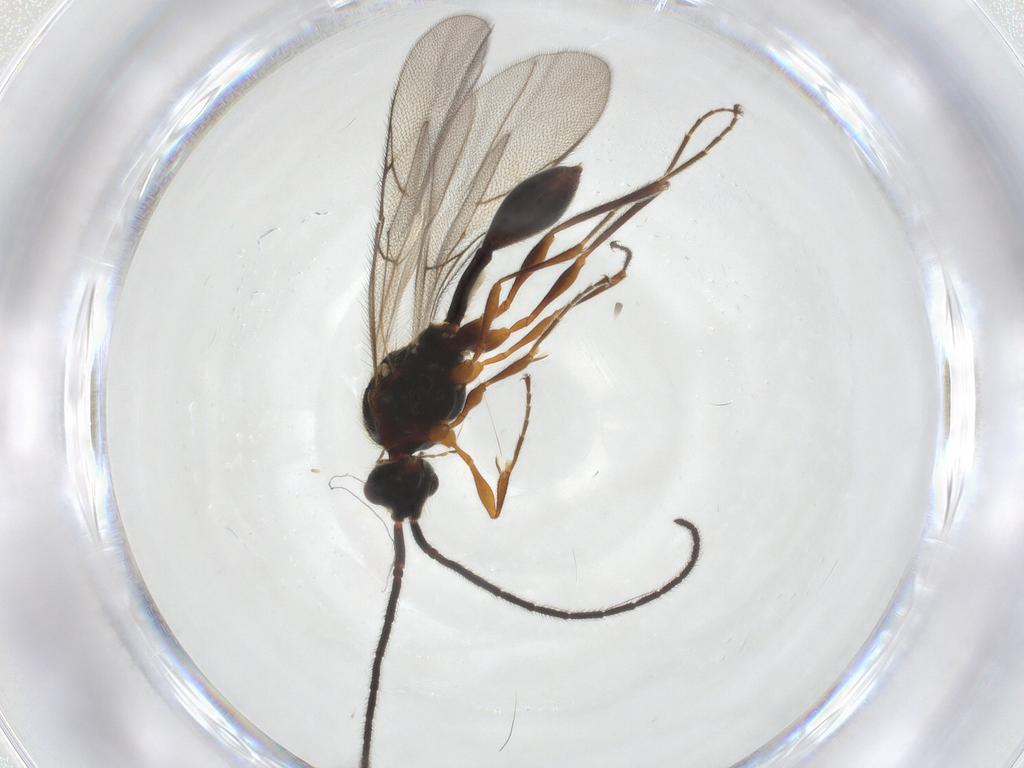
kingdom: Animalia
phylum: Arthropoda
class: Insecta
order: Hymenoptera
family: Diapriidae
